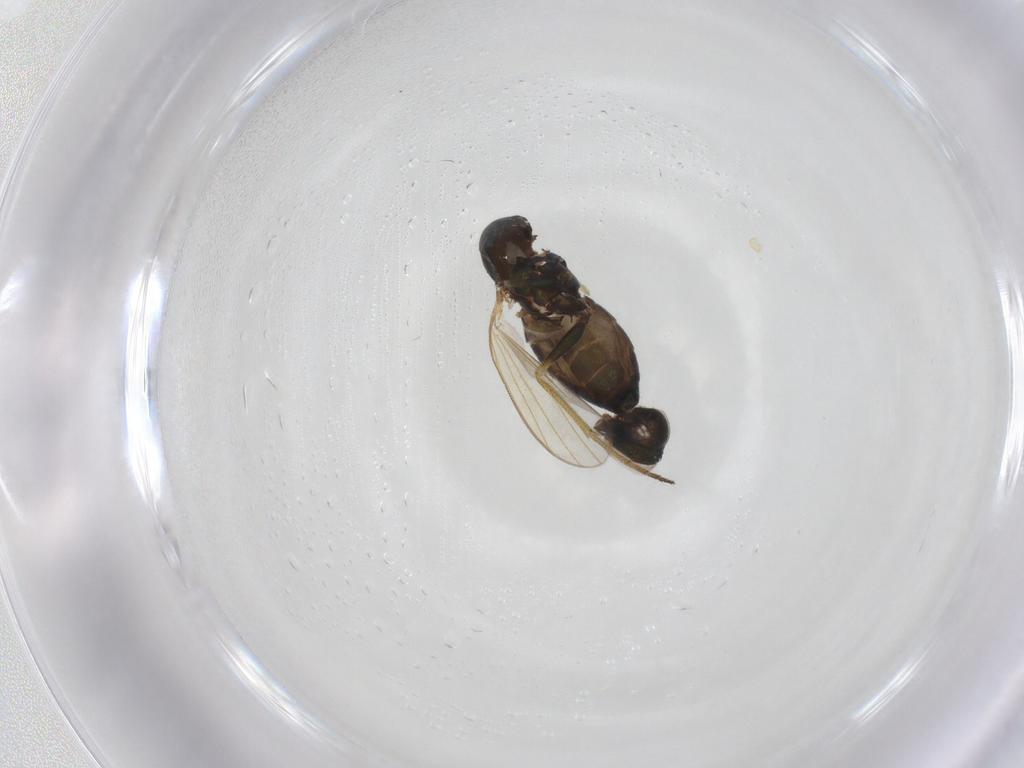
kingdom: Animalia
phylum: Arthropoda
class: Insecta
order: Diptera
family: Dolichopodidae
